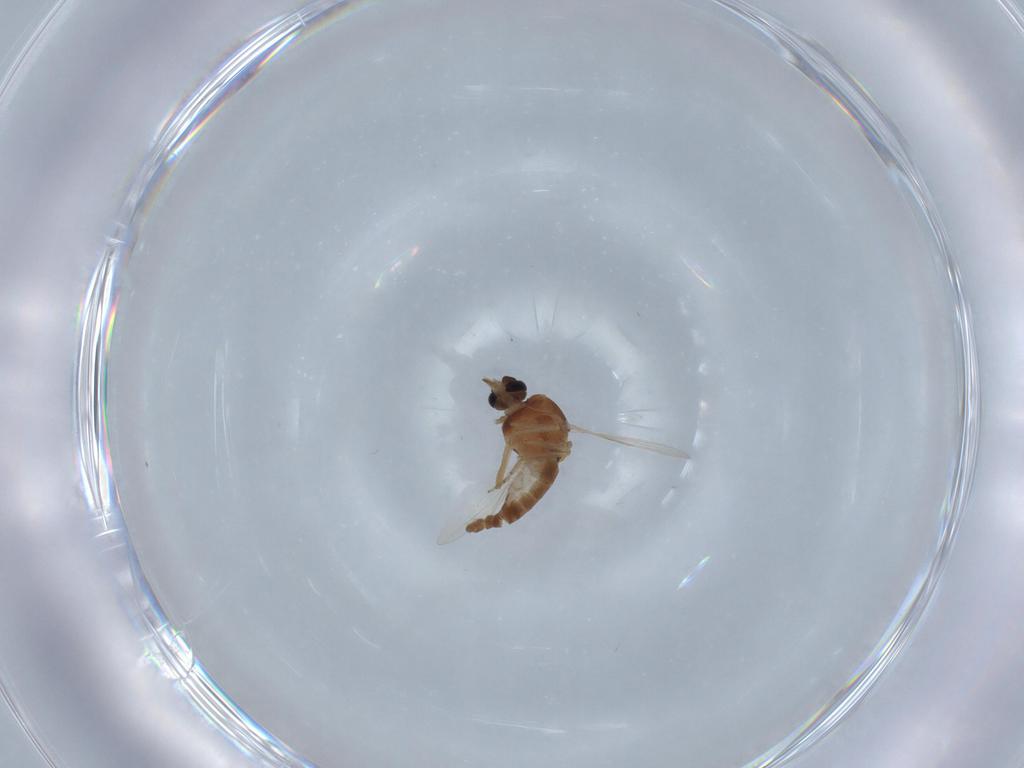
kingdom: Animalia
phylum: Arthropoda
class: Insecta
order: Diptera
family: Ceratopogonidae
